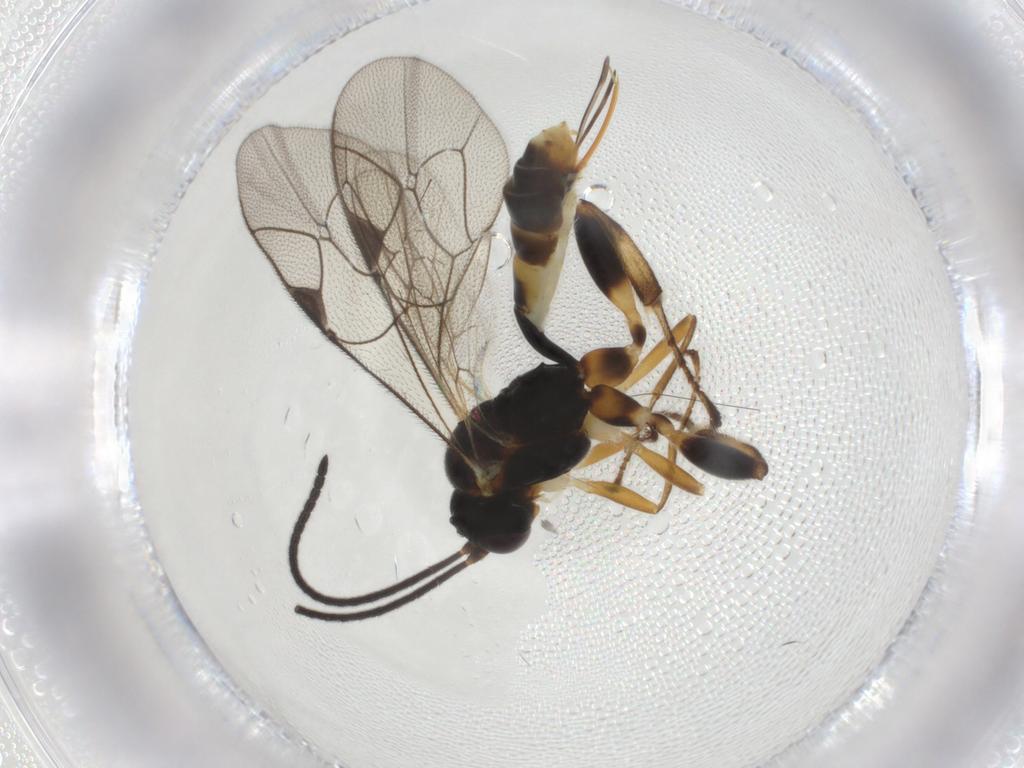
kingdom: Animalia
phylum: Arthropoda
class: Insecta
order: Hymenoptera
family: Ichneumonidae
